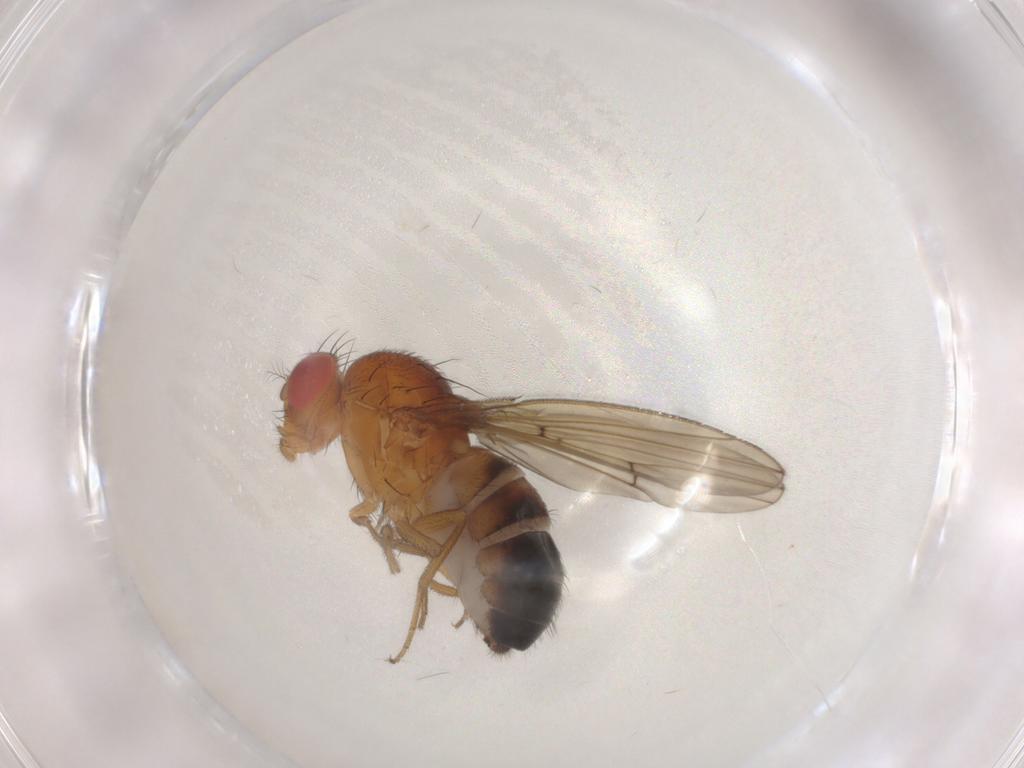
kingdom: Animalia
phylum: Arthropoda
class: Insecta
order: Diptera
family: Drosophilidae
